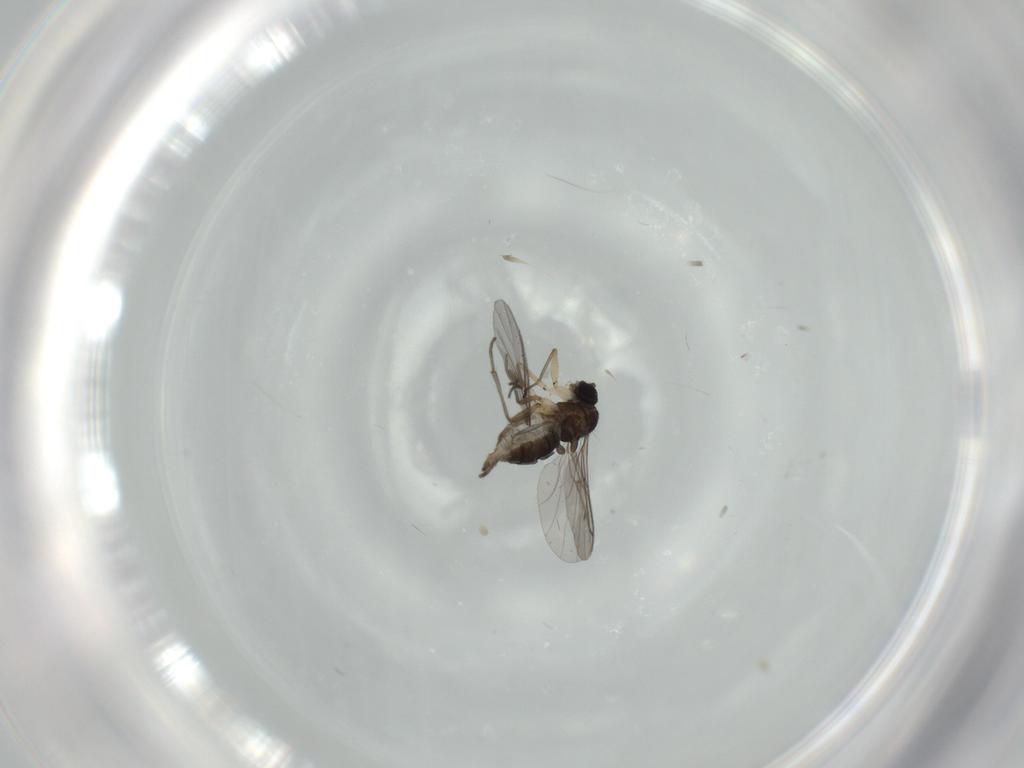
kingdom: Animalia
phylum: Arthropoda
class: Insecta
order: Diptera
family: Sciaridae
